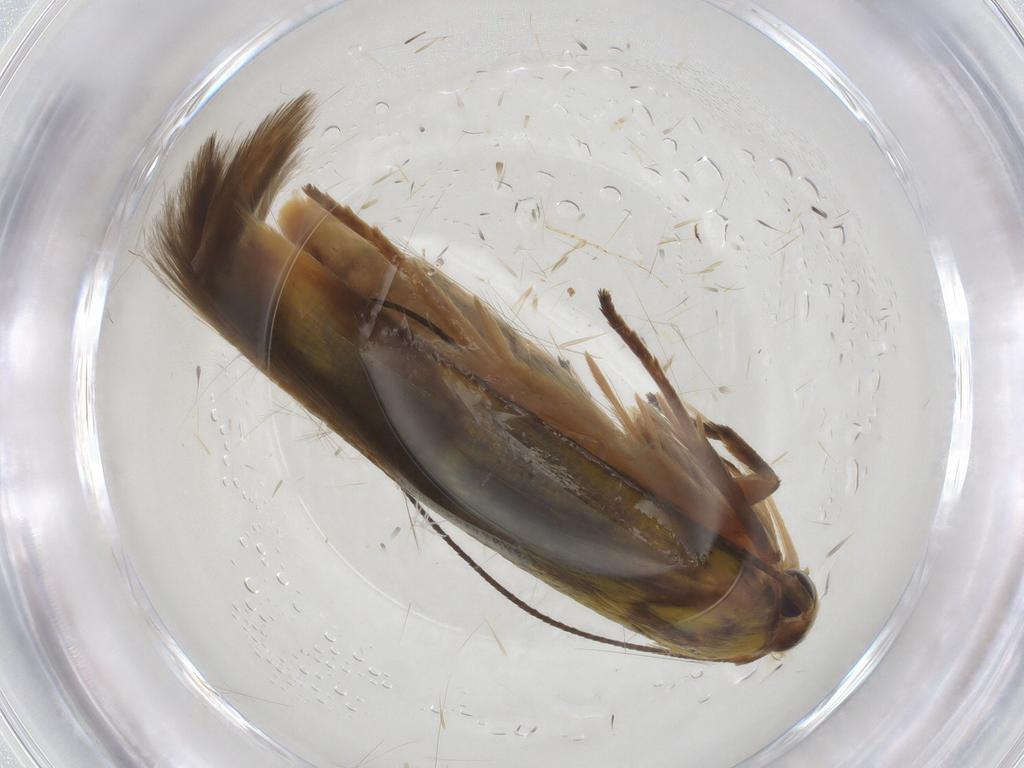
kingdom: Animalia
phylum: Arthropoda
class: Insecta
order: Lepidoptera
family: Stathmopodidae
